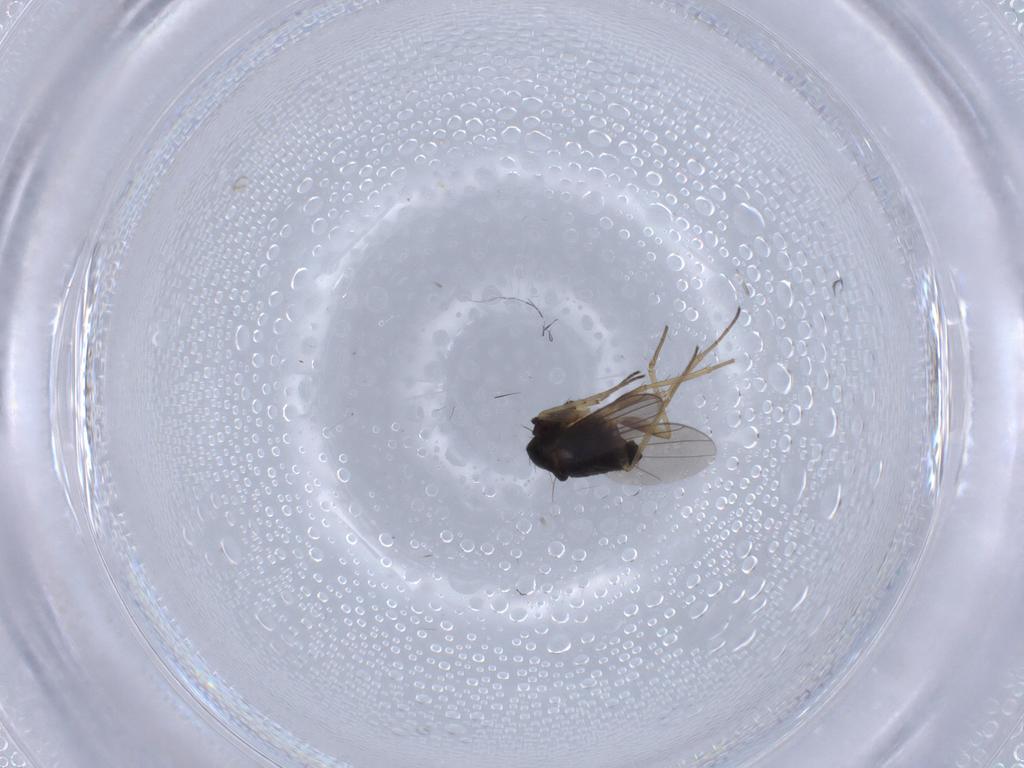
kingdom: Animalia
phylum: Arthropoda
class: Insecta
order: Diptera
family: Dolichopodidae
